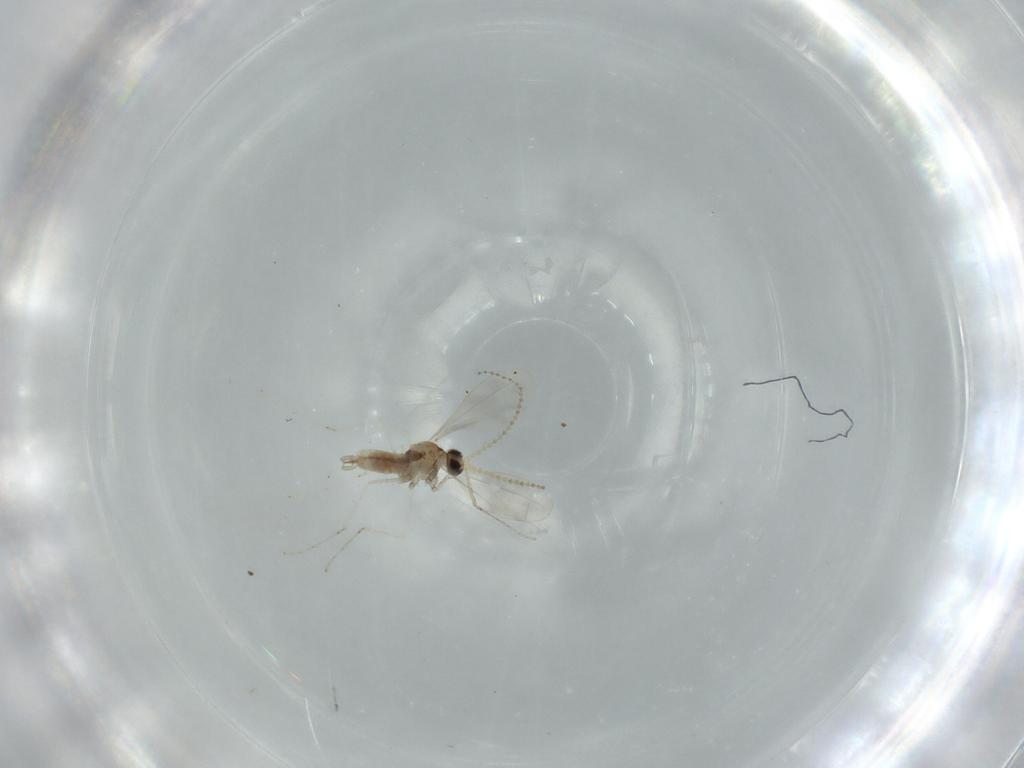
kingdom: Animalia
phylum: Arthropoda
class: Insecta
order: Diptera
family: Cecidomyiidae
